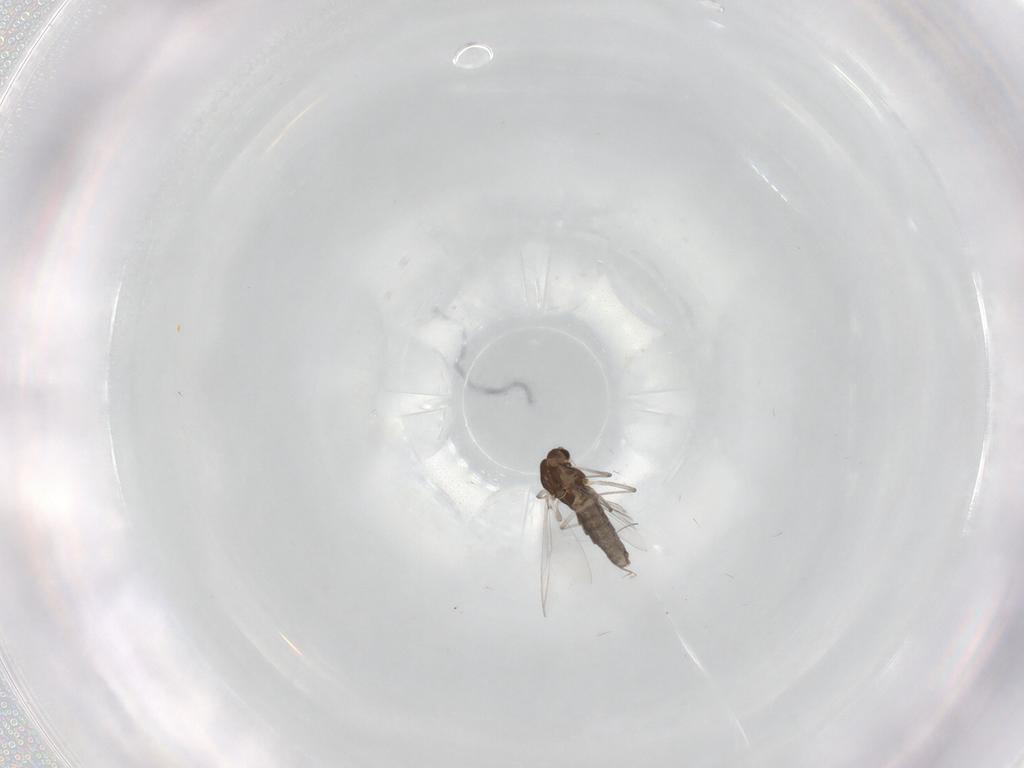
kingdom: Animalia
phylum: Arthropoda
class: Insecta
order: Diptera
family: Chironomidae
